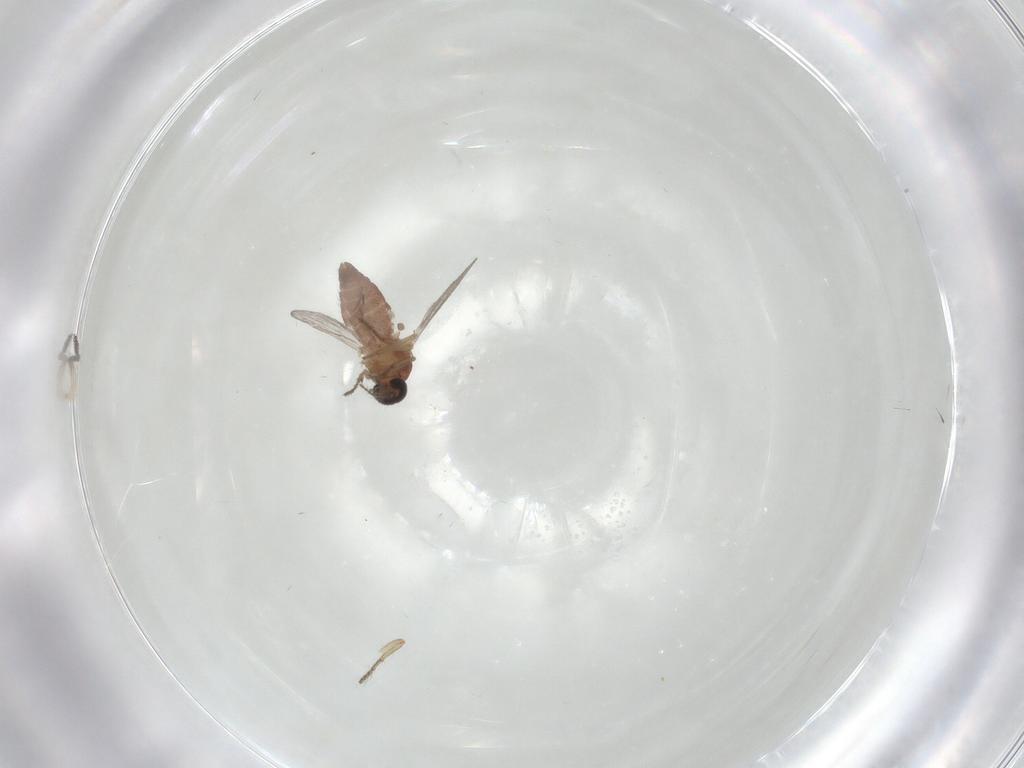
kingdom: Animalia
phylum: Arthropoda
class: Insecta
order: Diptera
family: Ceratopogonidae
